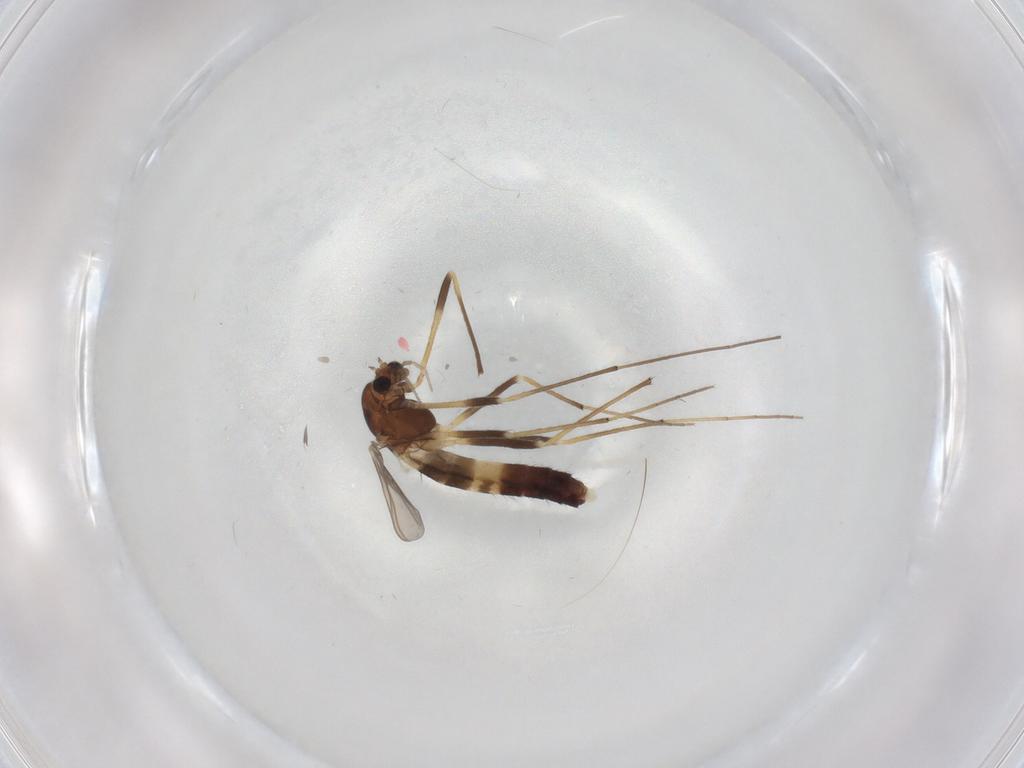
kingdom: Animalia
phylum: Arthropoda
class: Insecta
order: Diptera
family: Chironomidae
